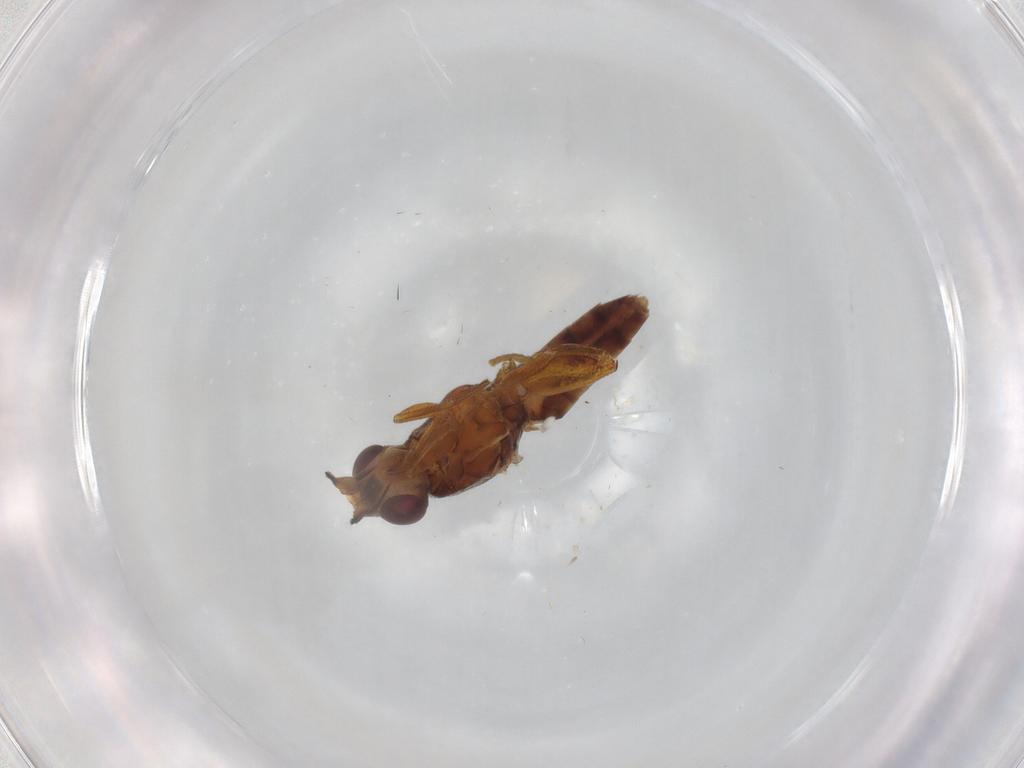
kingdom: Animalia
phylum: Arthropoda
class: Insecta
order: Diptera
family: Chloropidae
